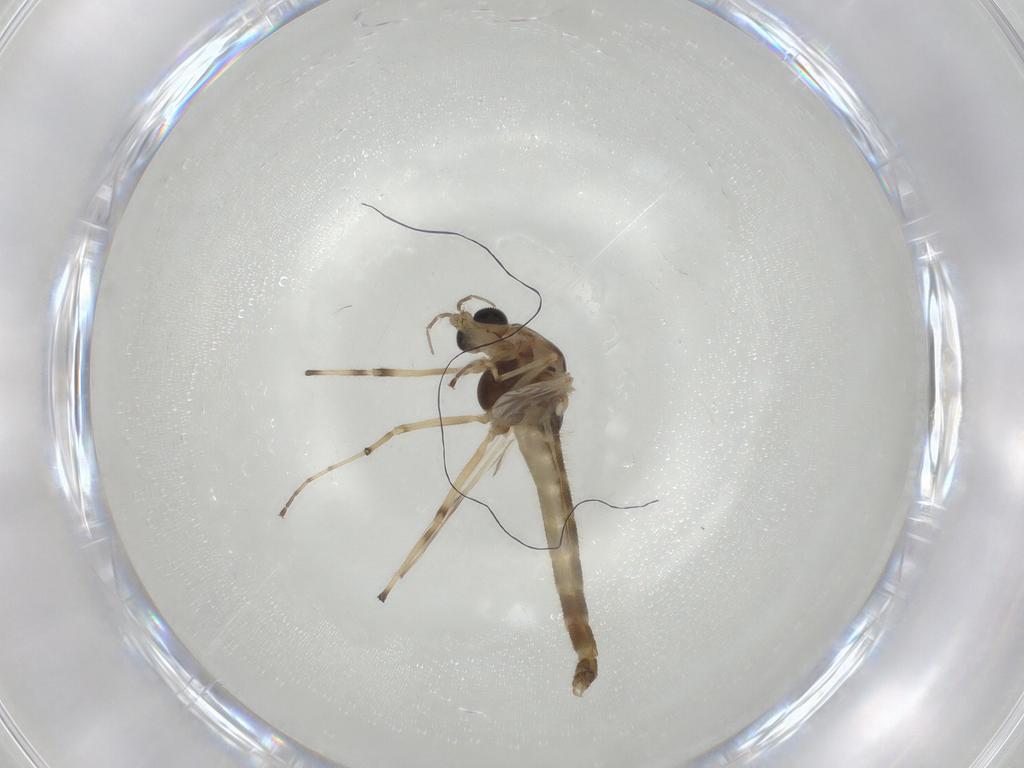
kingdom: Animalia
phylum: Arthropoda
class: Insecta
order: Diptera
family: Chironomidae
